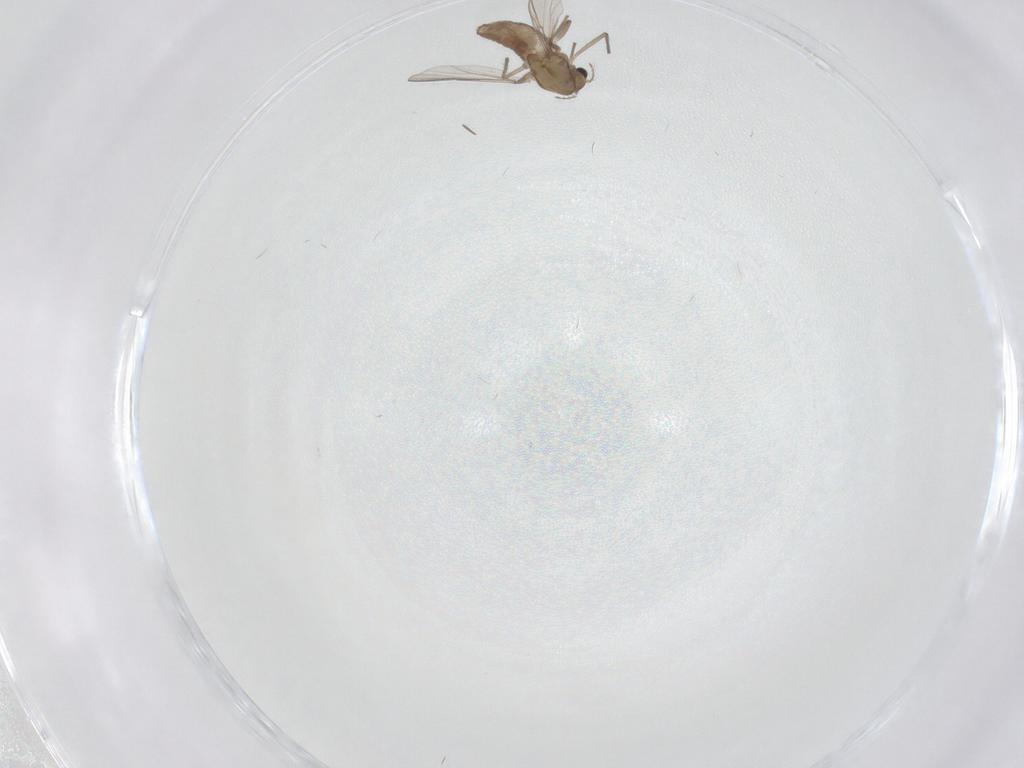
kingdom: Animalia
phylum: Arthropoda
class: Insecta
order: Diptera
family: Chironomidae
